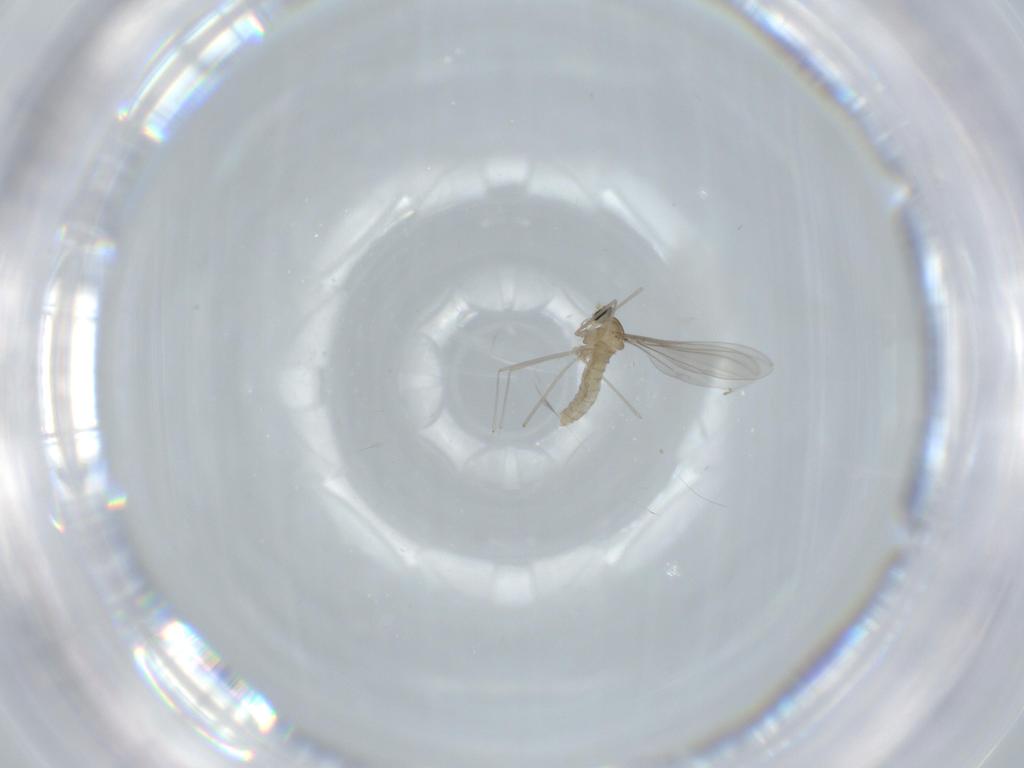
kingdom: Animalia
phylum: Arthropoda
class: Insecta
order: Diptera
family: Cecidomyiidae
